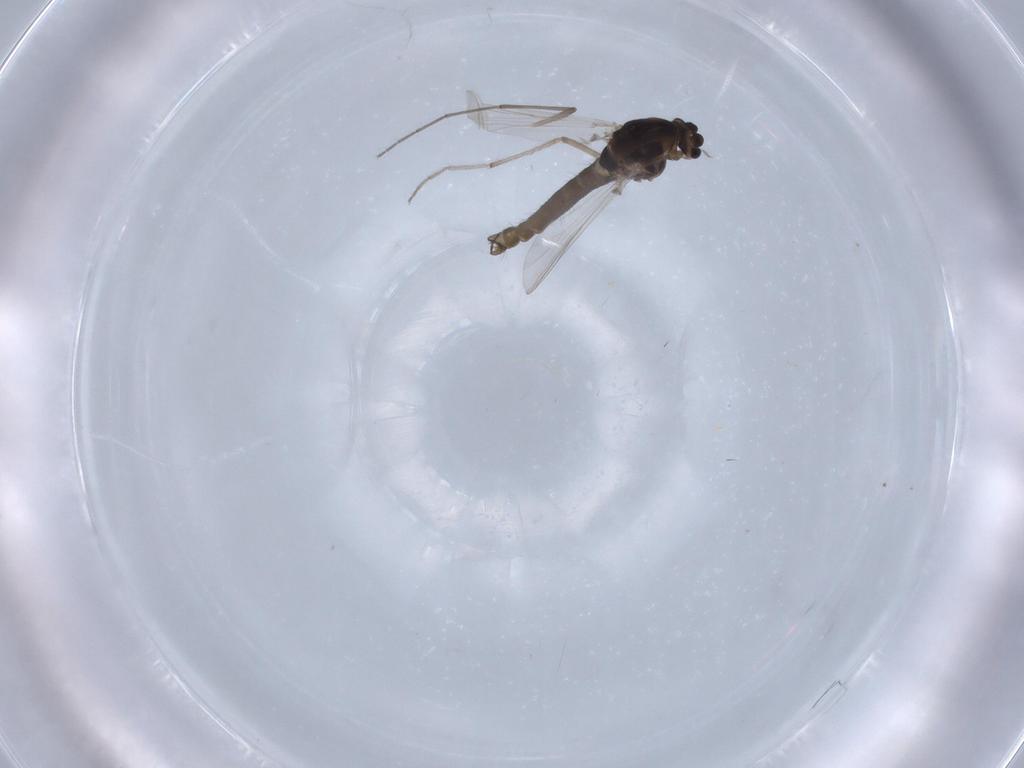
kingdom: Animalia
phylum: Arthropoda
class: Insecta
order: Diptera
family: Chironomidae
